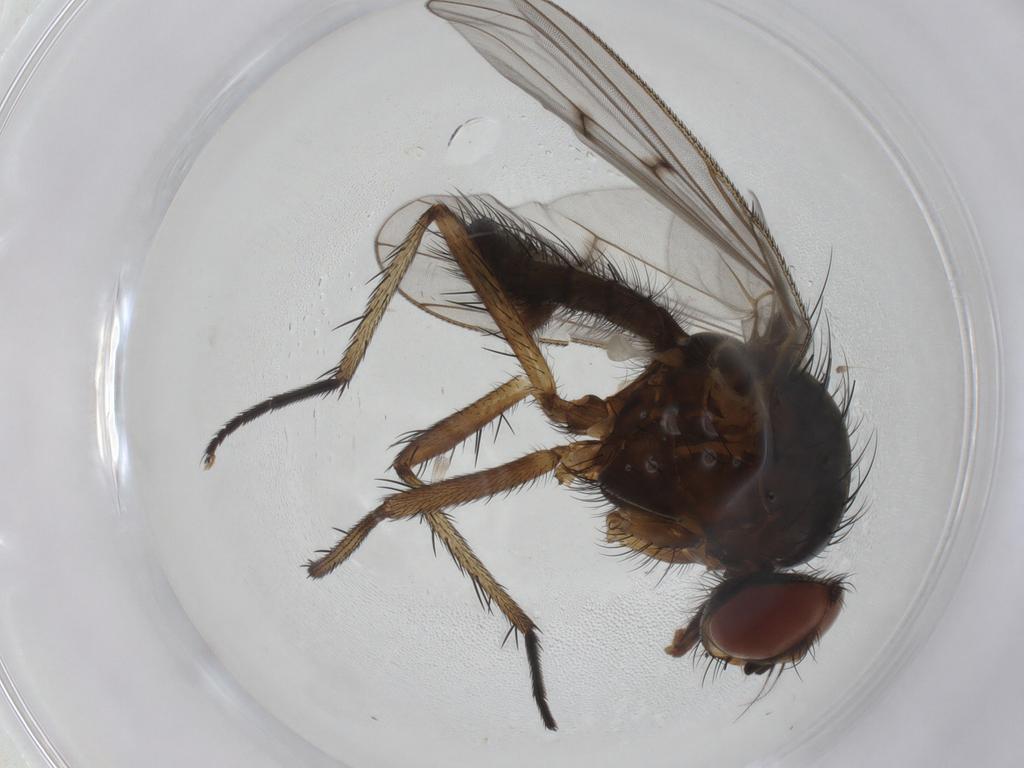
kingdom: Animalia
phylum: Arthropoda
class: Insecta
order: Diptera
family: Anthomyiidae
